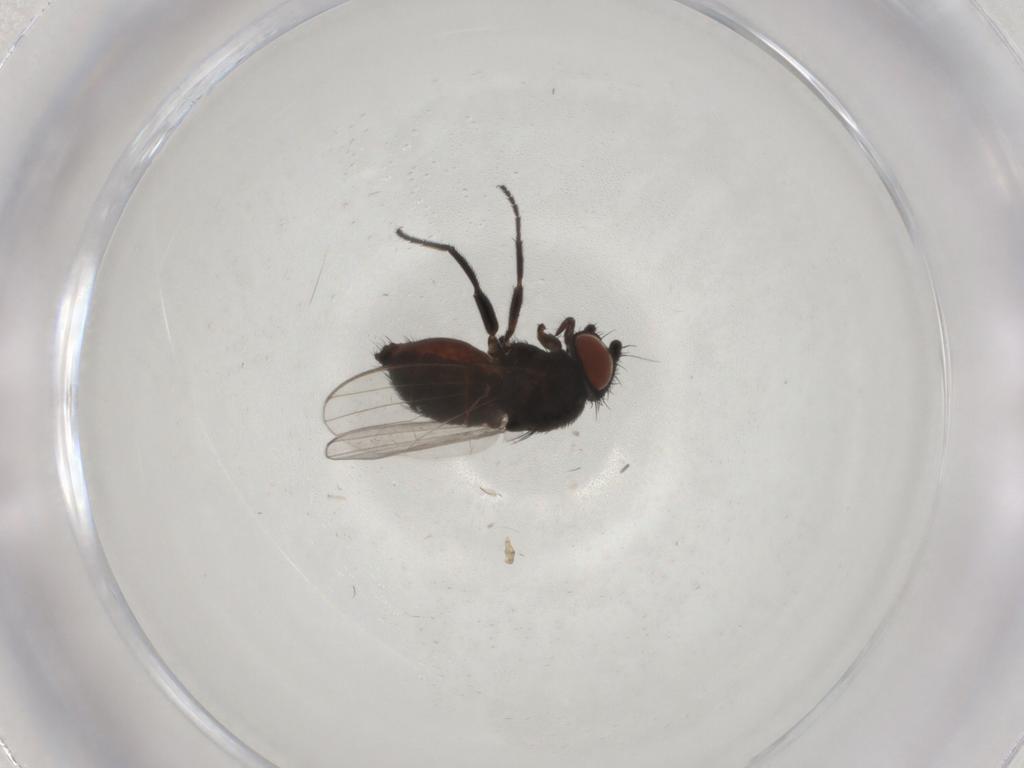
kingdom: Animalia
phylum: Arthropoda
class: Insecta
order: Diptera
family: Milichiidae
